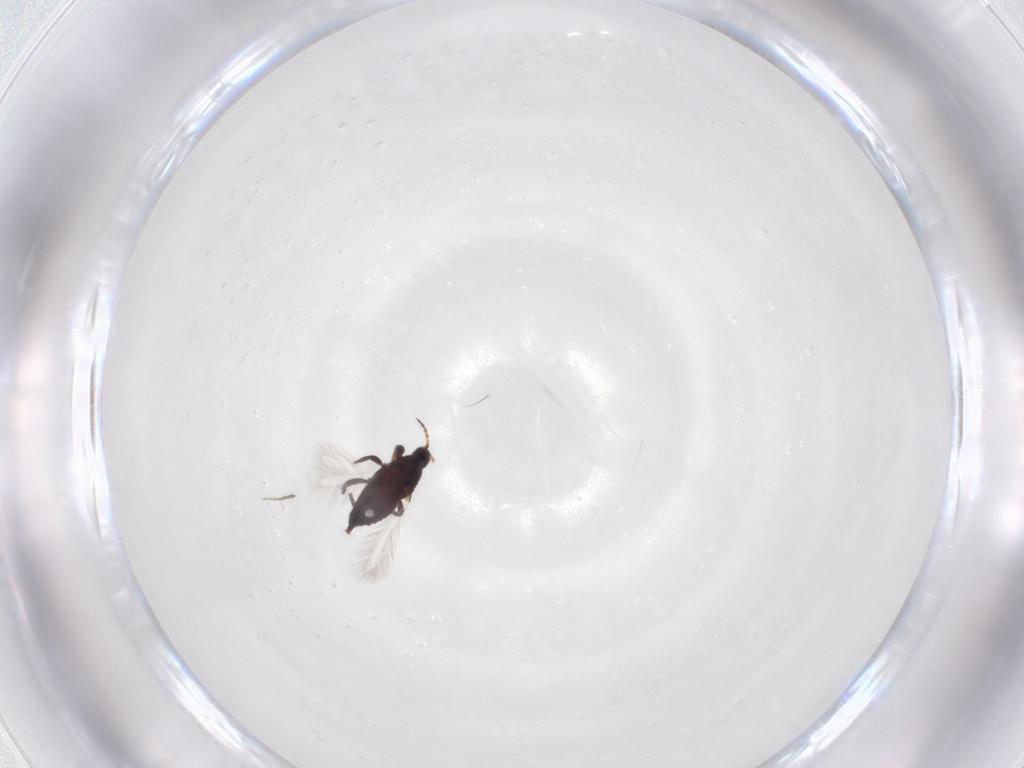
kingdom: Animalia
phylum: Arthropoda
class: Insecta
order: Thysanoptera
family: Phlaeothripidae
